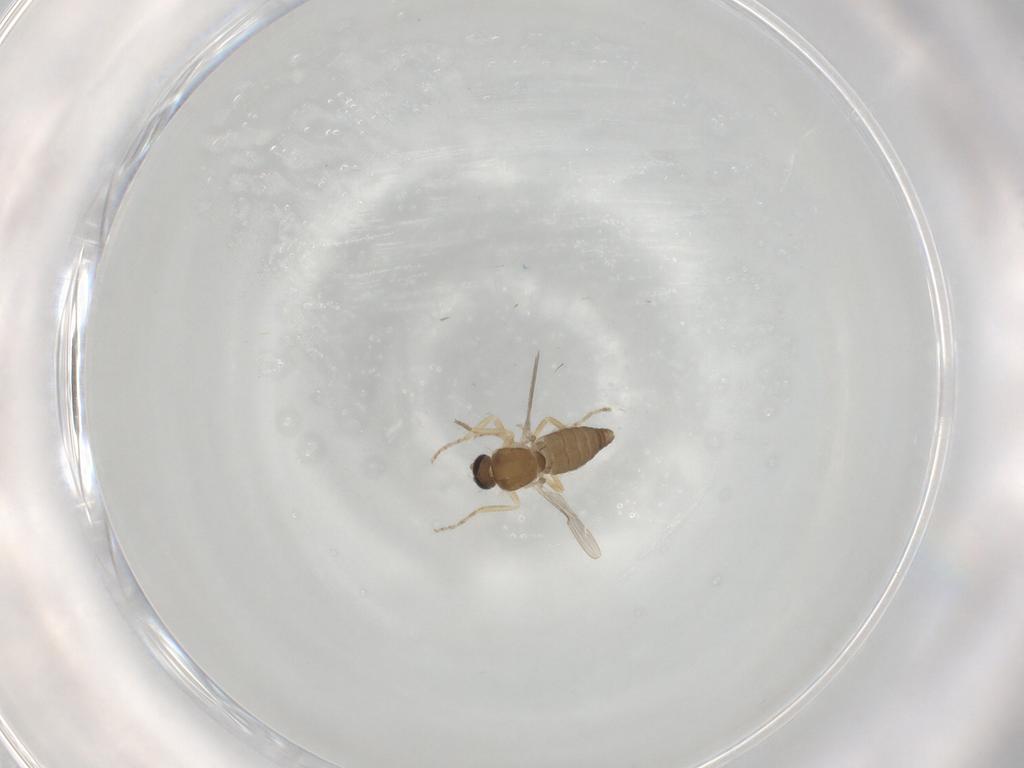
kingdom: Animalia
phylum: Arthropoda
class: Insecta
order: Diptera
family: Ceratopogonidae
